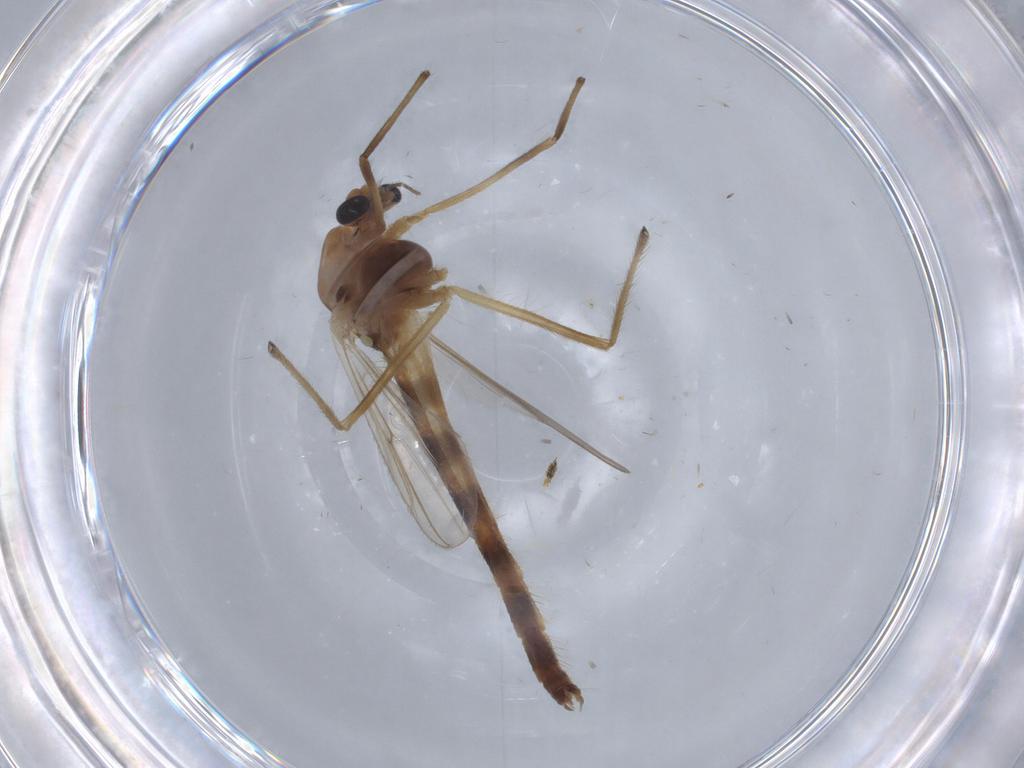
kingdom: Animalia
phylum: Arthropoda
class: Insecta
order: Diptera
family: Chironomidae
